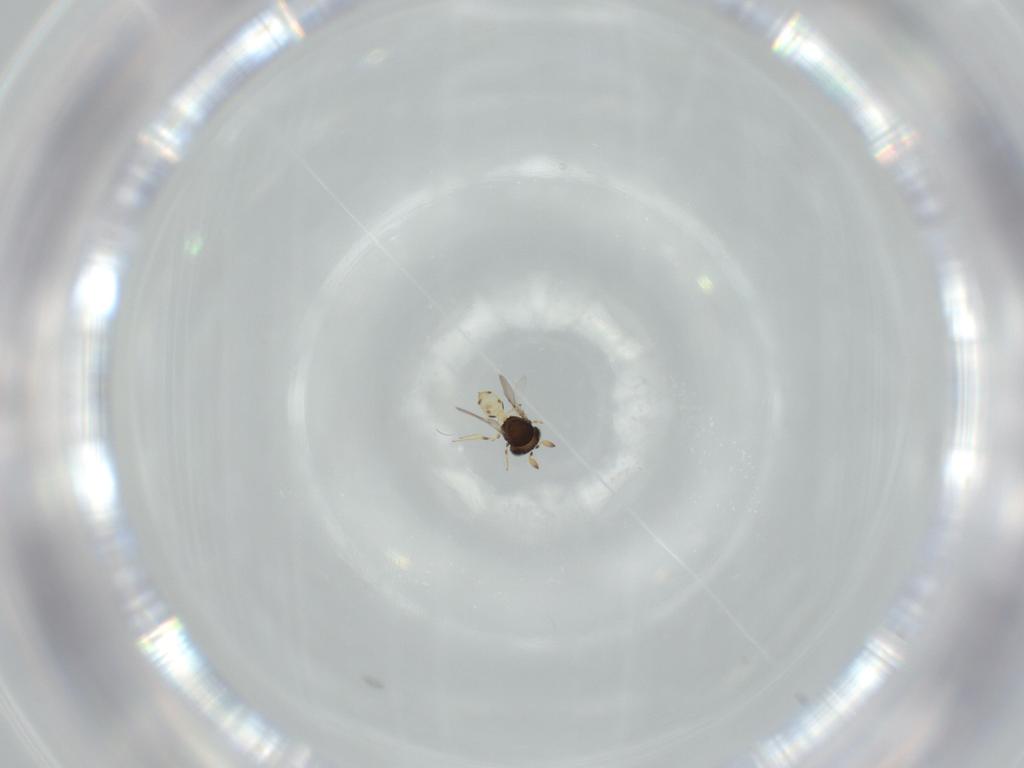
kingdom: Animalia
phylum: Arthropoda
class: Insecta
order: Hymenoptera
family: Scelionidae
